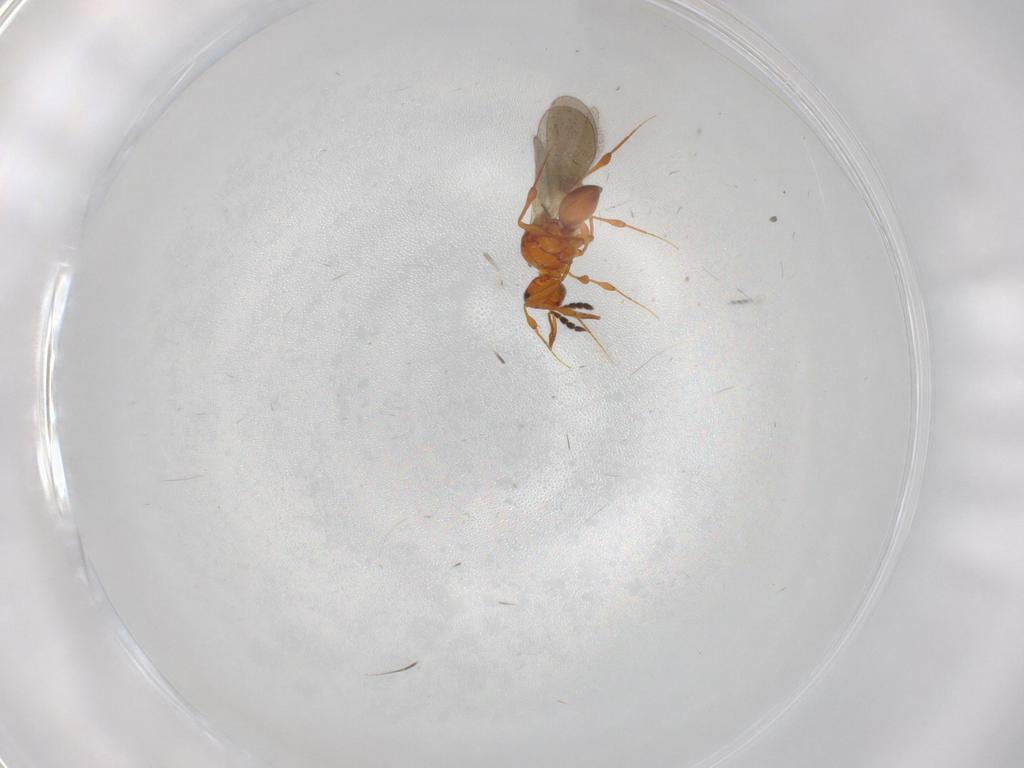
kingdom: Animalia
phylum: Arthropoda
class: Insecta
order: Hymenoptera
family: Platygastridae
